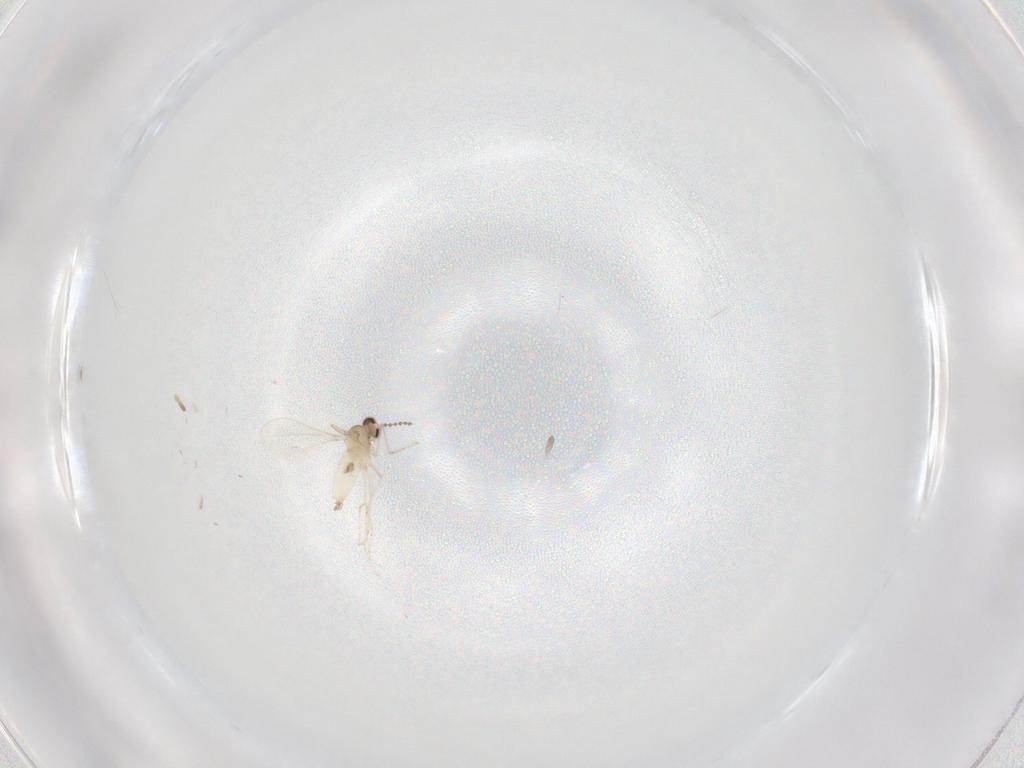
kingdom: Animalia
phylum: Arthropoda
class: Insecta
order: Diptera
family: Cecidomyiidae
